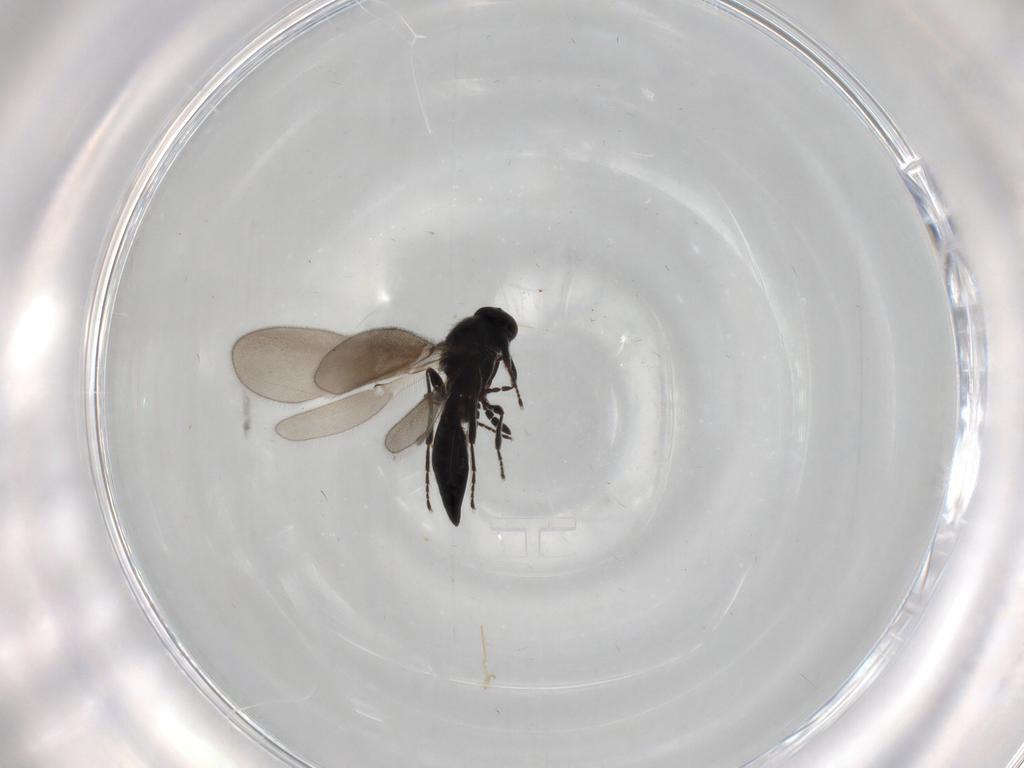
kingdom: Animalia
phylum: Arthropoda
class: Insecta
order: Hymenoptera
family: Platygastridae
